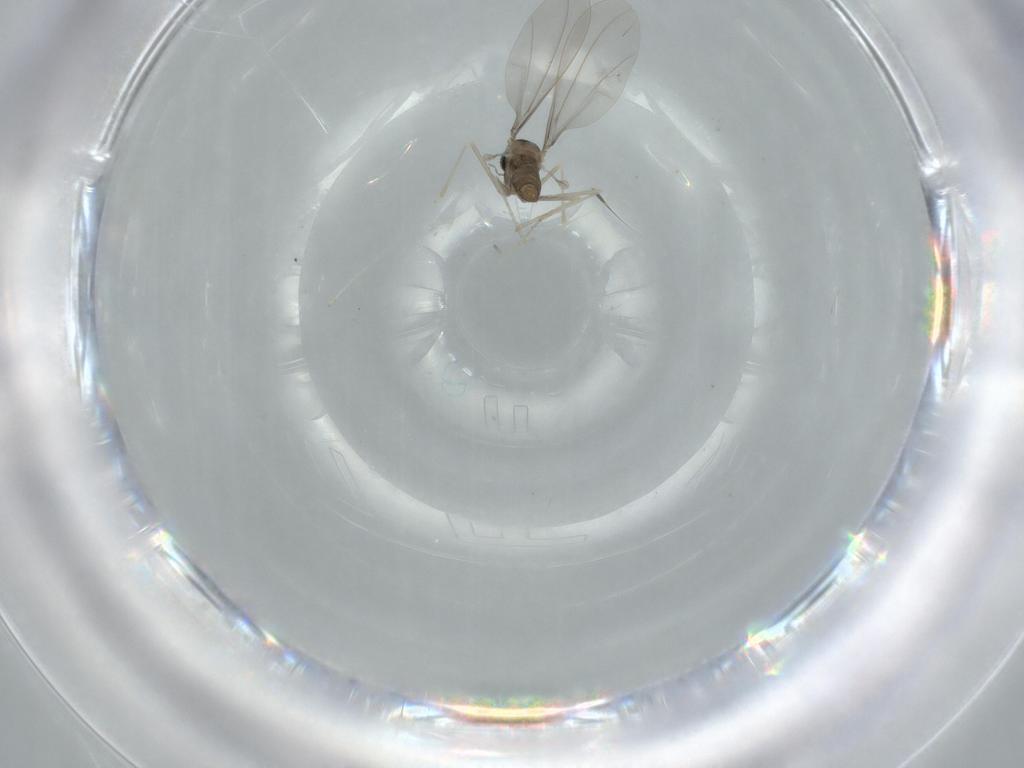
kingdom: Animalia
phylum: Arthropoda
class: Insecta
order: Diptera
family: Cecidomyiidae
